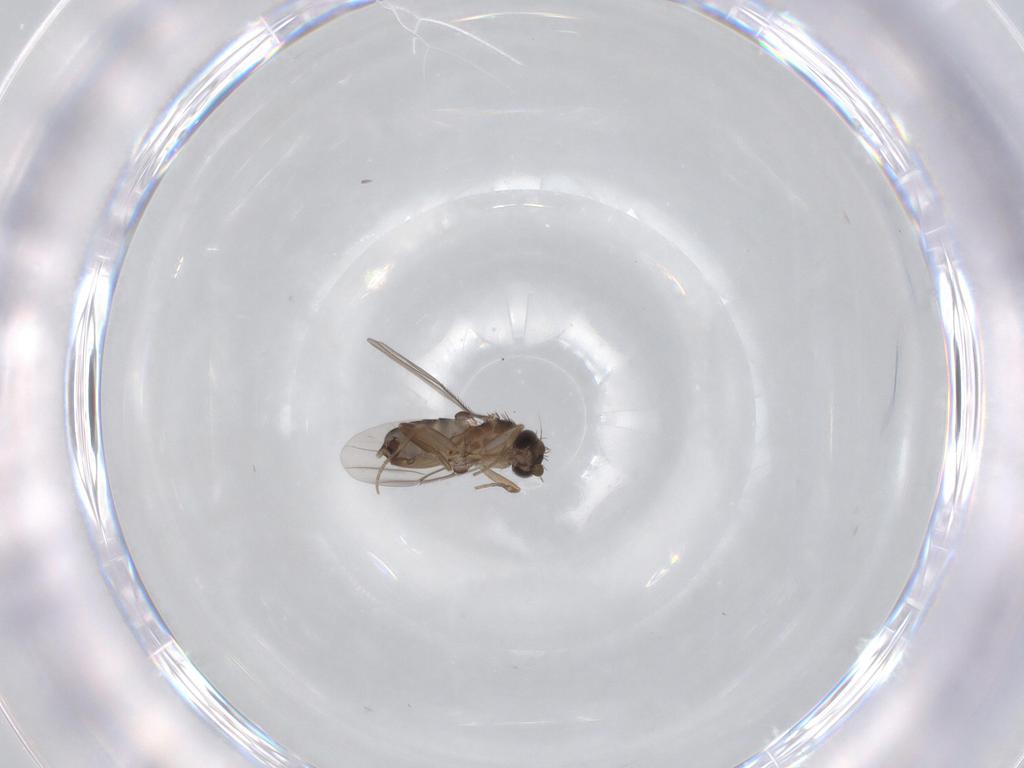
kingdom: Animalia
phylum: Arthropoda
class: Insecta
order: Diptera
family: Phoridae
